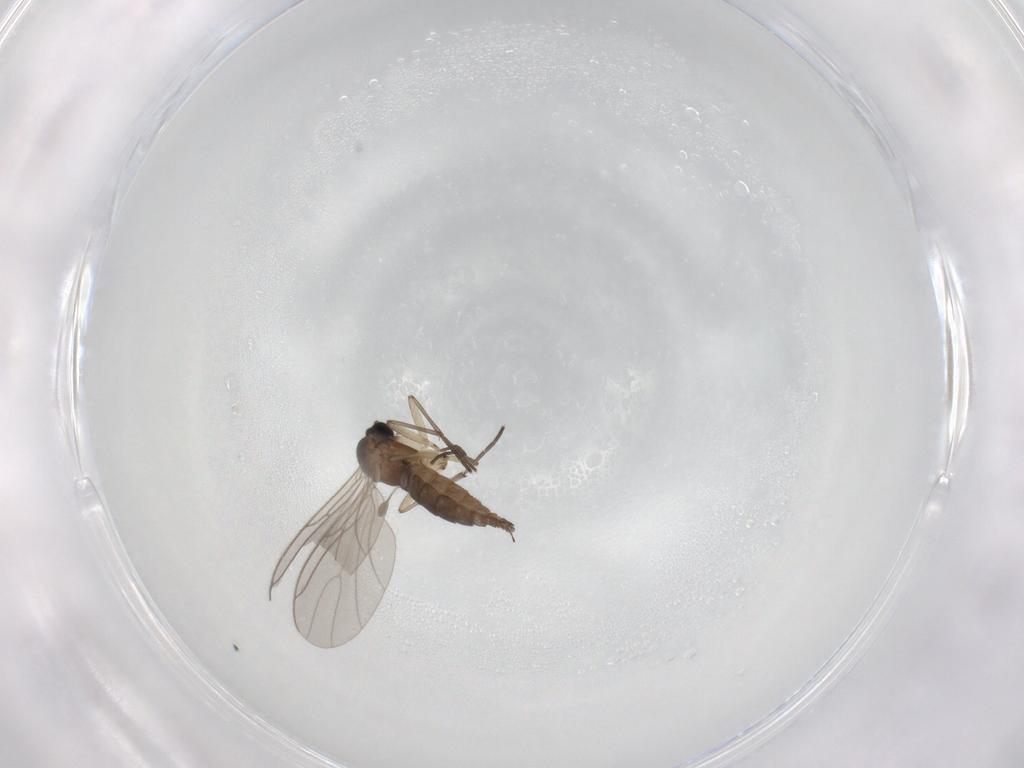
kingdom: Animalia
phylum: Arthropoda
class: Insecta
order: Diptera
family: Sciaridae
